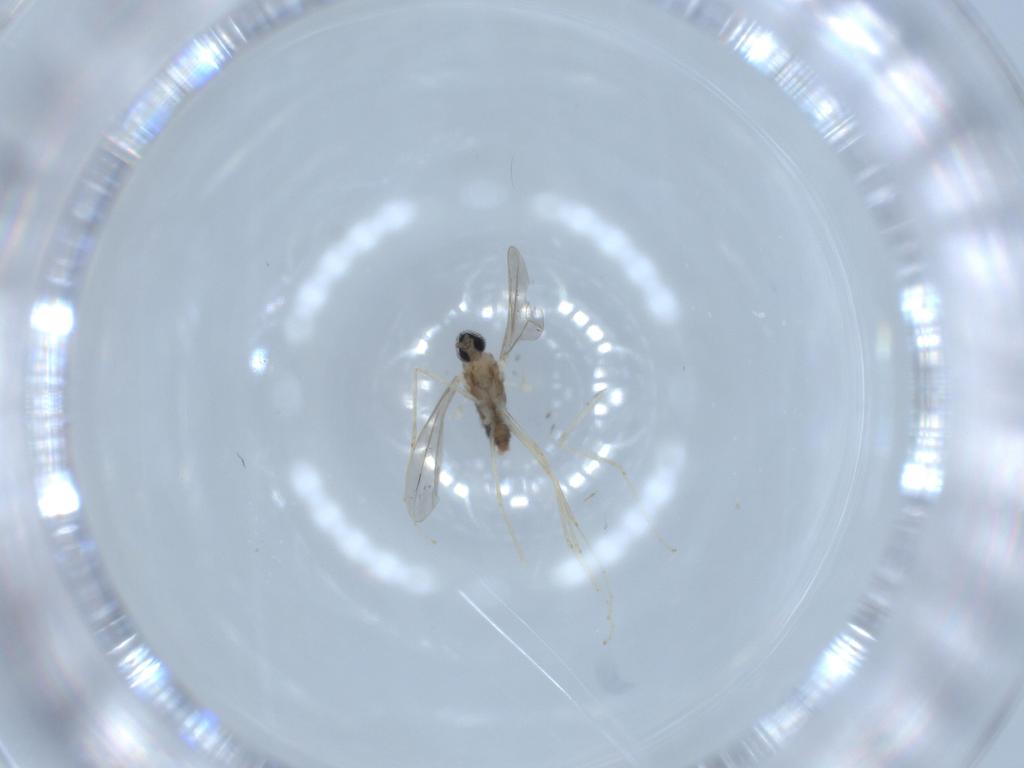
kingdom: Animalia
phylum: Arthropoda
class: Insecta
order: Diptera
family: Cecidomyiidae
